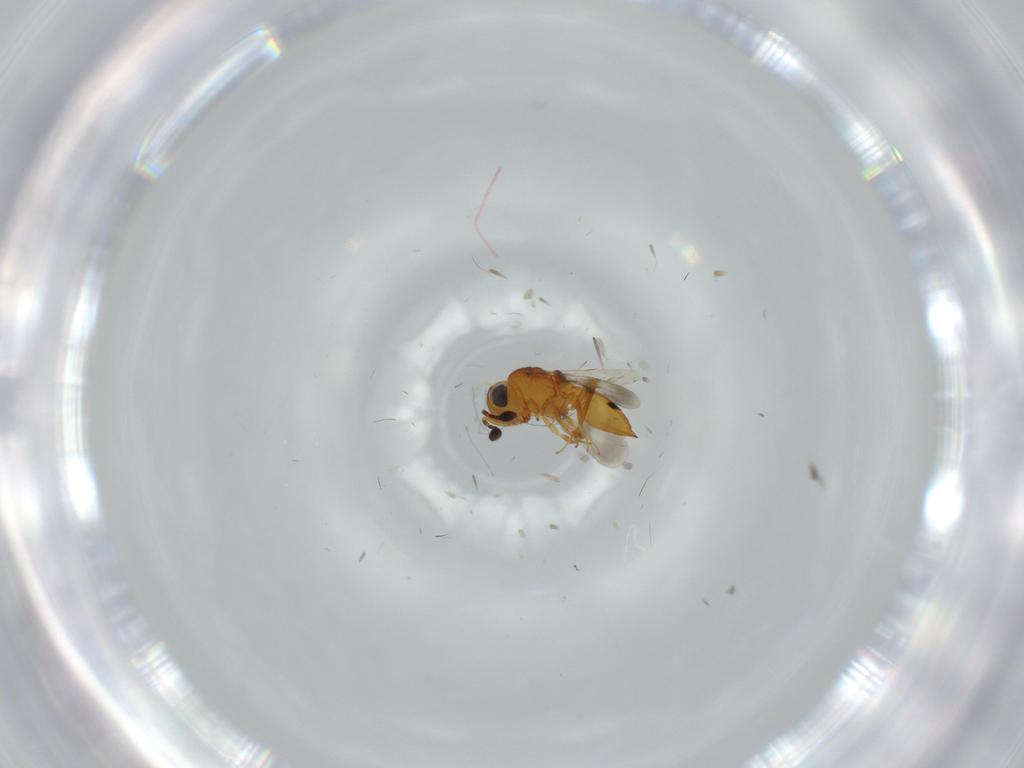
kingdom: Animalia
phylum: Arthropoda
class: Insecta
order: Hymenoptera
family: Scelionidae
